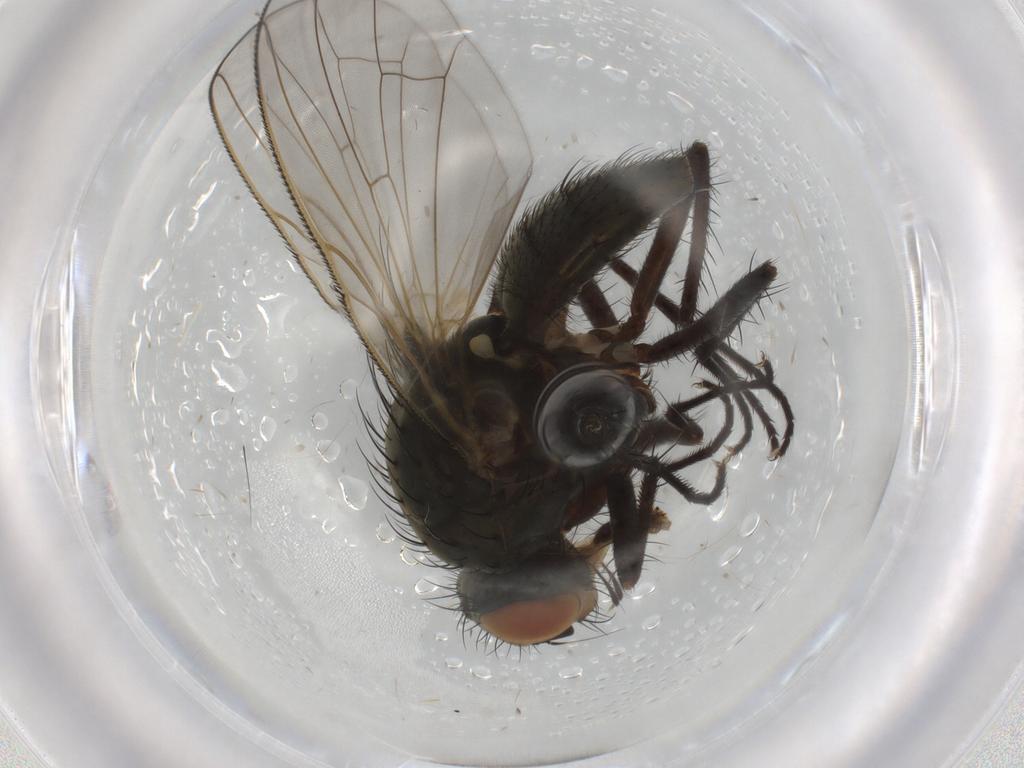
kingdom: Animalia
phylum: Arthropoda
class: Insecta
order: Diptera
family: Anthomyiidae
